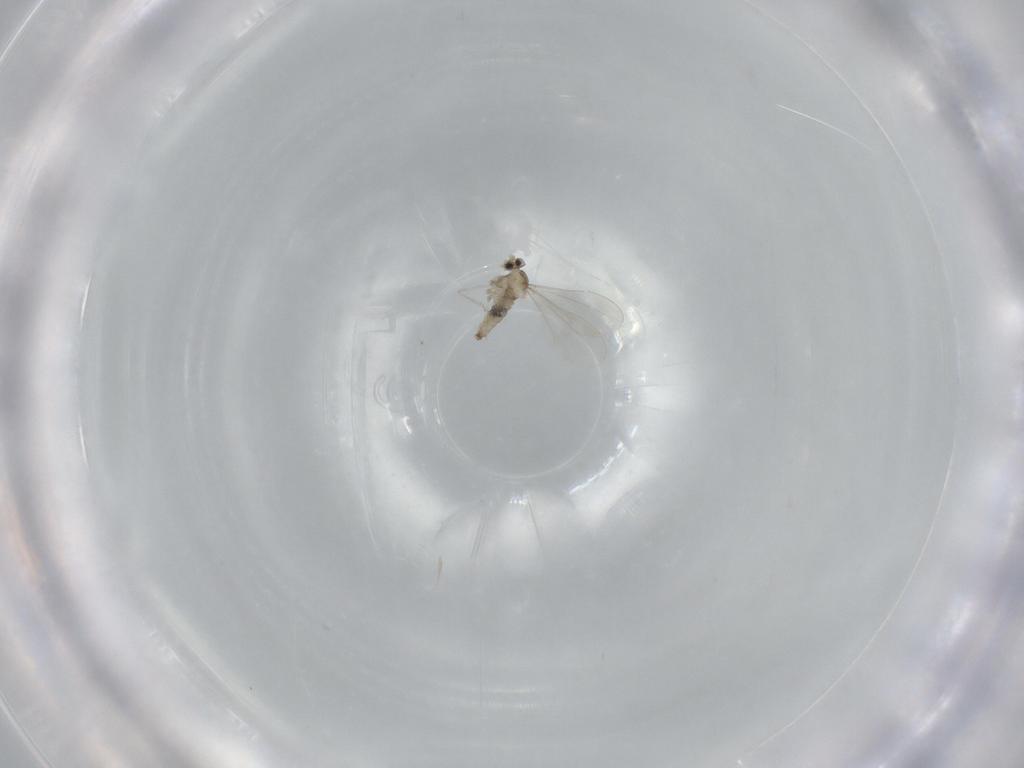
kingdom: Animalia
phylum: Arthropoda
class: Insecta
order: Diptera
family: Cecidomyiidae
